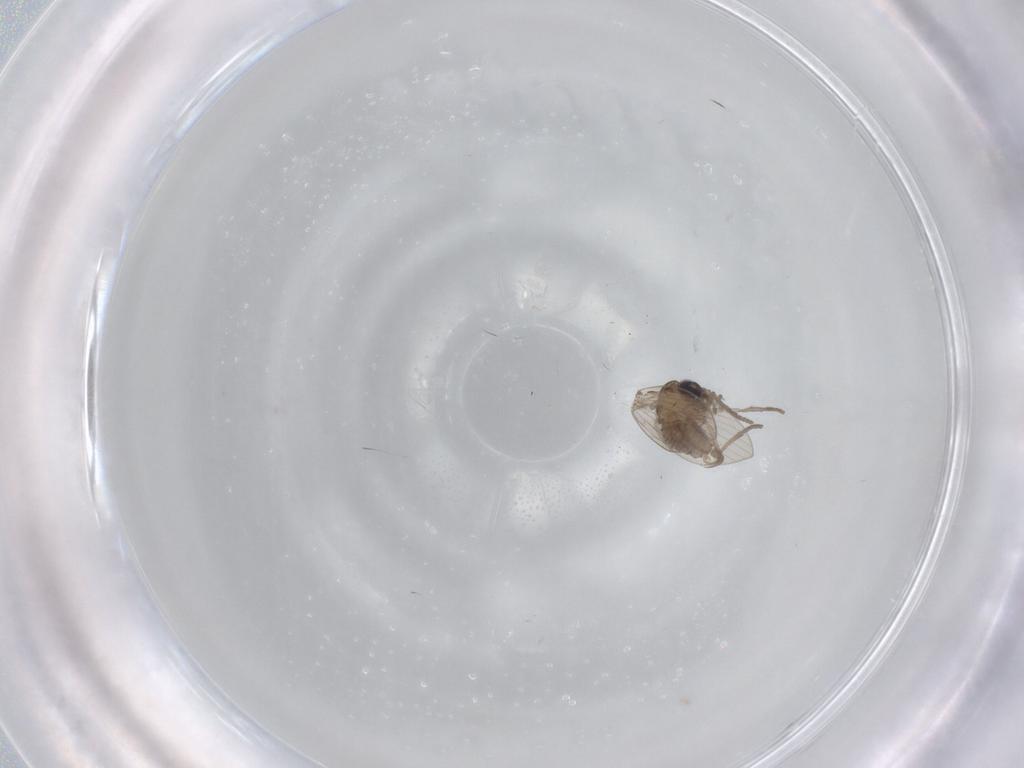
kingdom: Animalia
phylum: Arthropoda
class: Insecta
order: Diptera
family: Psychodidae
